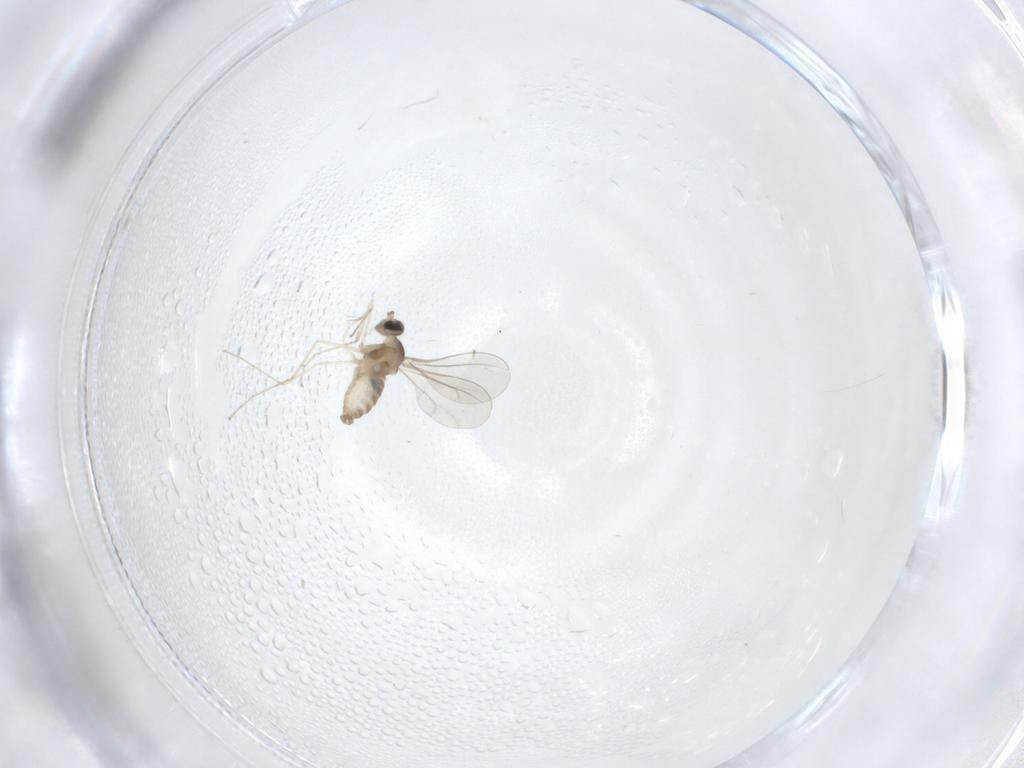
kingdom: Animalia
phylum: Arthropoda
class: Insecta
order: Diptera
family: Cecidomyiidae
